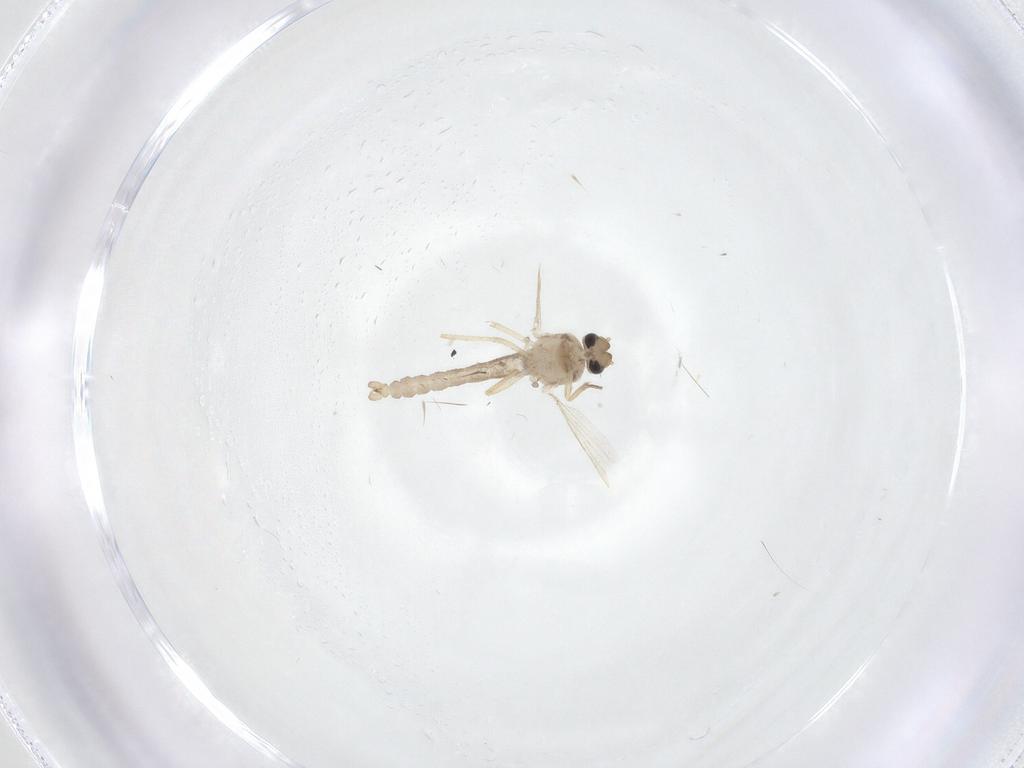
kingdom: Animalia
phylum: Arthropoda
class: Insecta
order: Diptera
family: Ceratopogonidae
